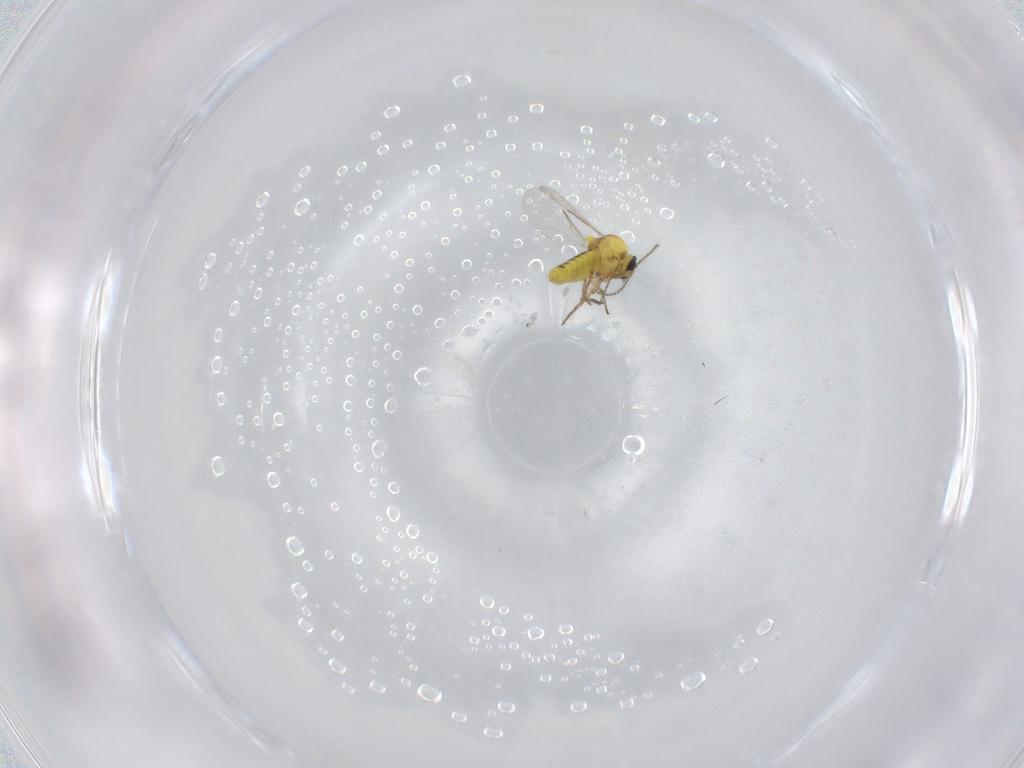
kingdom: Animalia
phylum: Arthropoda
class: Insecta
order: Diptera
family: Ceratopogonidae
